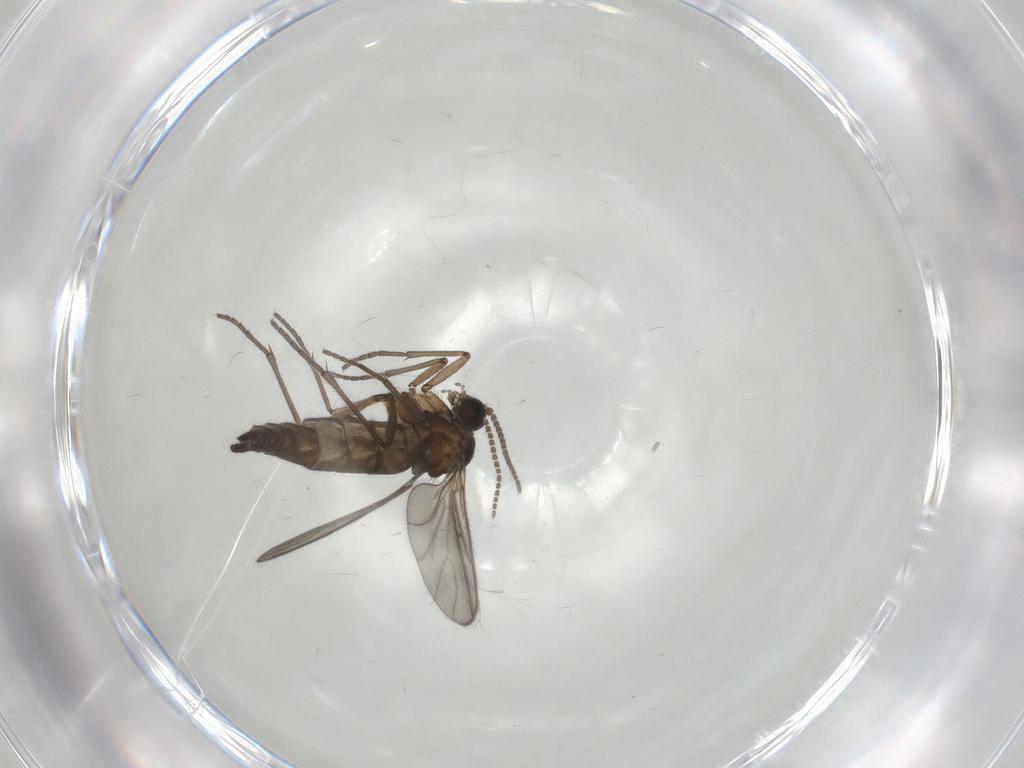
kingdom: Animalia
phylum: Arthropoda
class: Insecta
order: Diptera
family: Sciaridae
